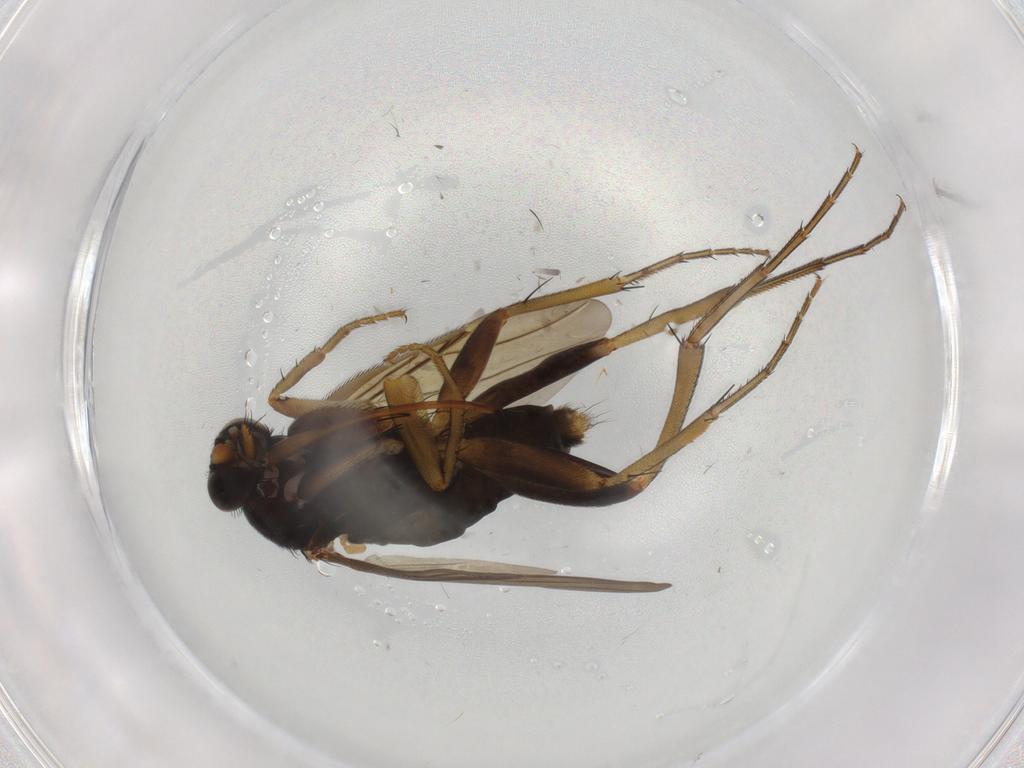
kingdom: Animalia
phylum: Arthropoda
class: Insecta
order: Diptera
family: Phoridae
